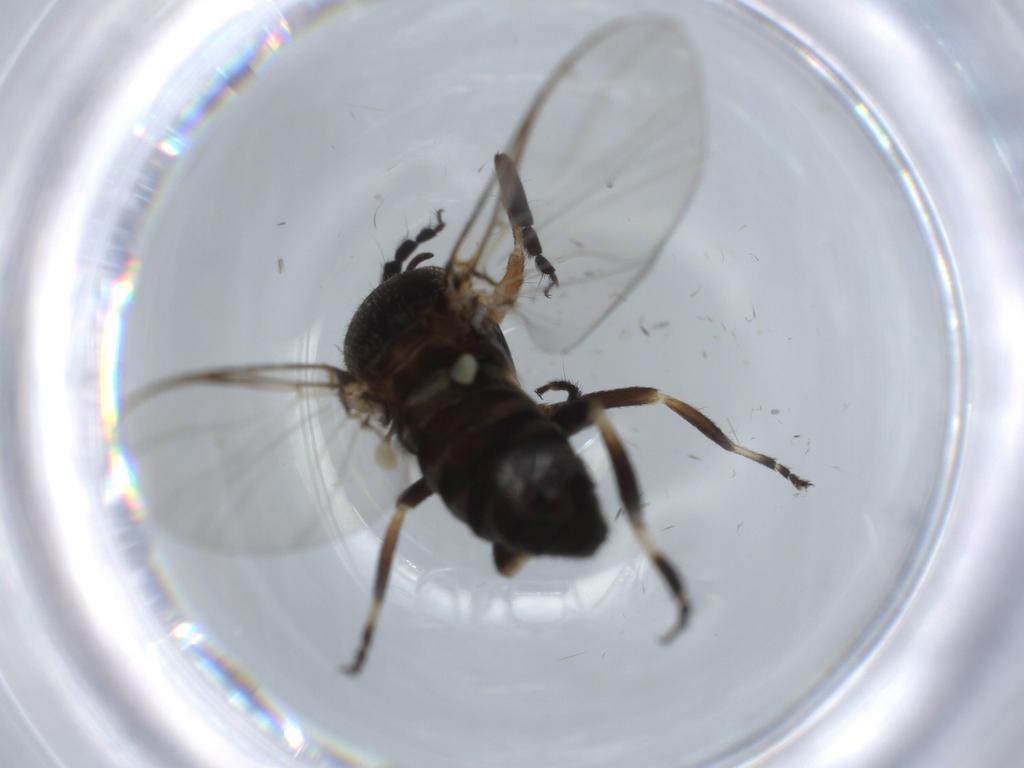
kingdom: Animalia
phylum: Arthropoda
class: Insecta
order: Diptera
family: Chironomidae
